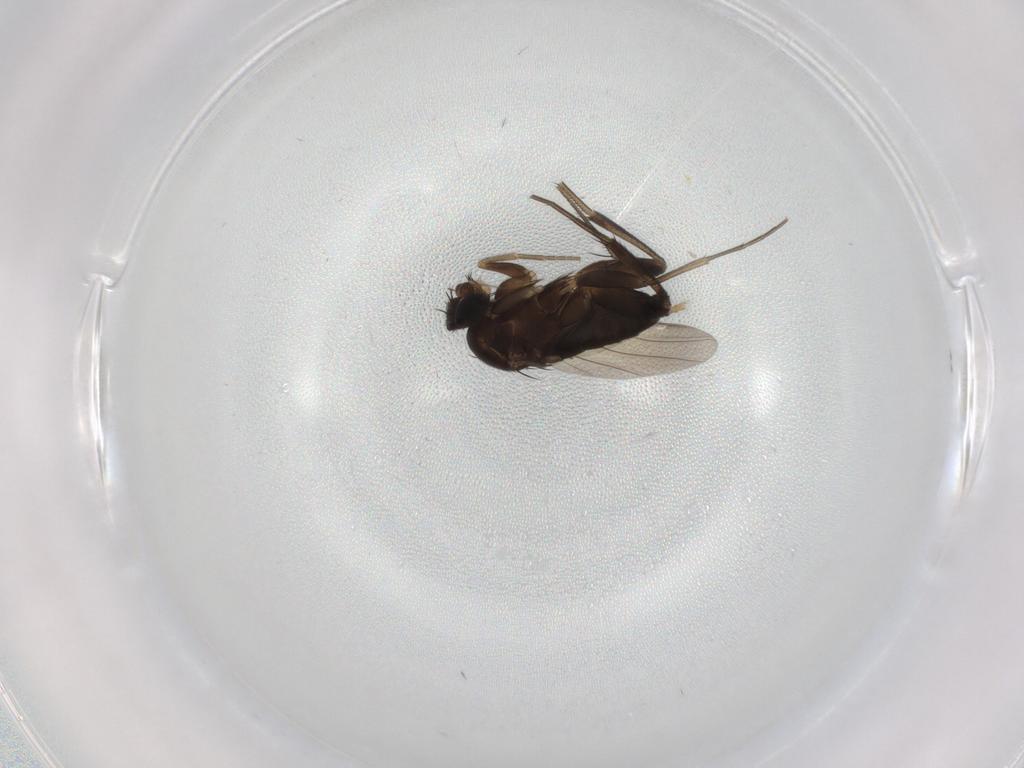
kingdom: Animalia
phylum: Arthropoda
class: Insecta
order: Diptera
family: Phoridae
